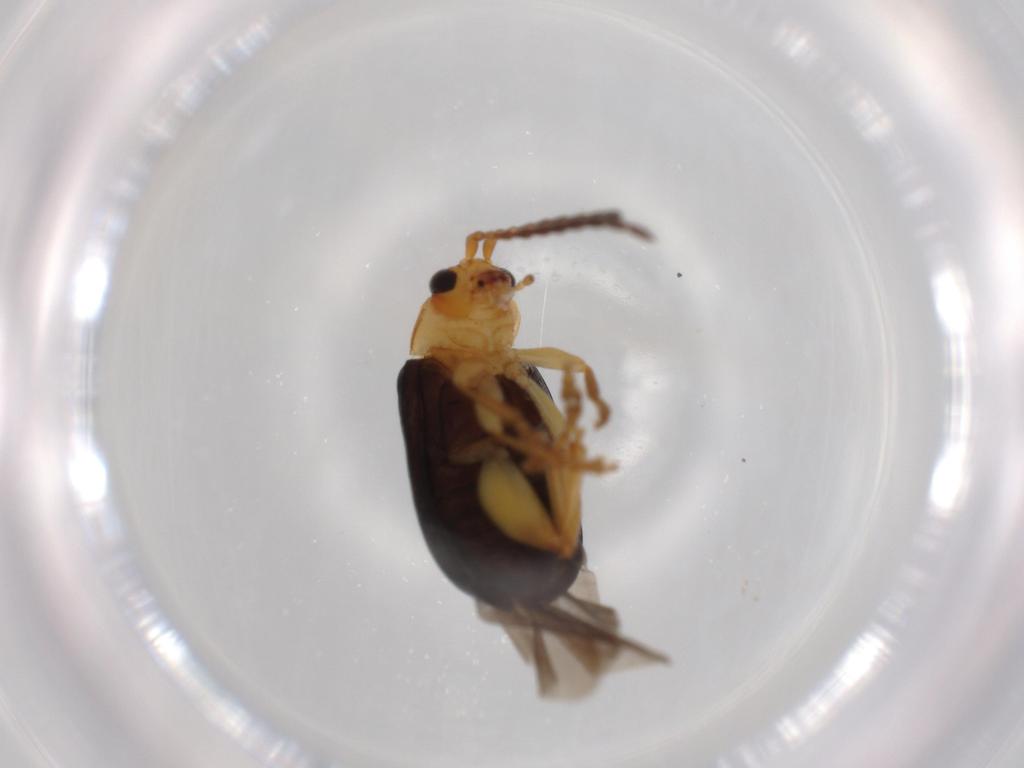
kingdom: Animalia
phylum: Arthropoda
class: Insecta
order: Coleoptera
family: Chrysomelidae
